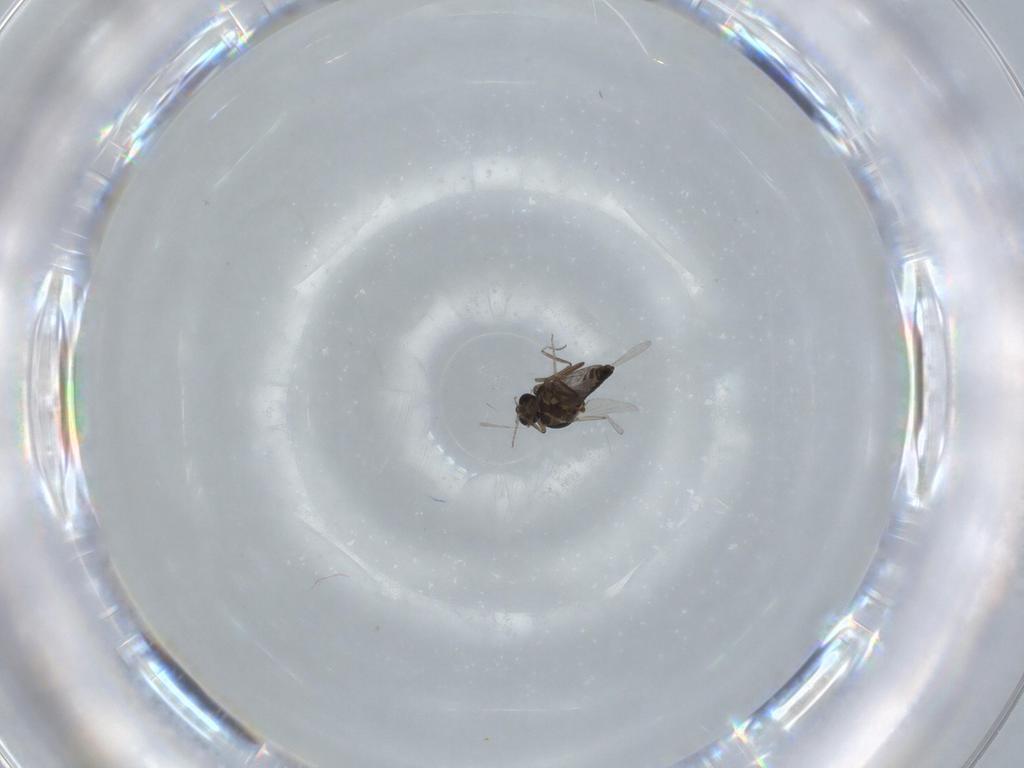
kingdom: Animalia
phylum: Arthropoda
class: Insecta
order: Diptera
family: Ceratopogonidae
